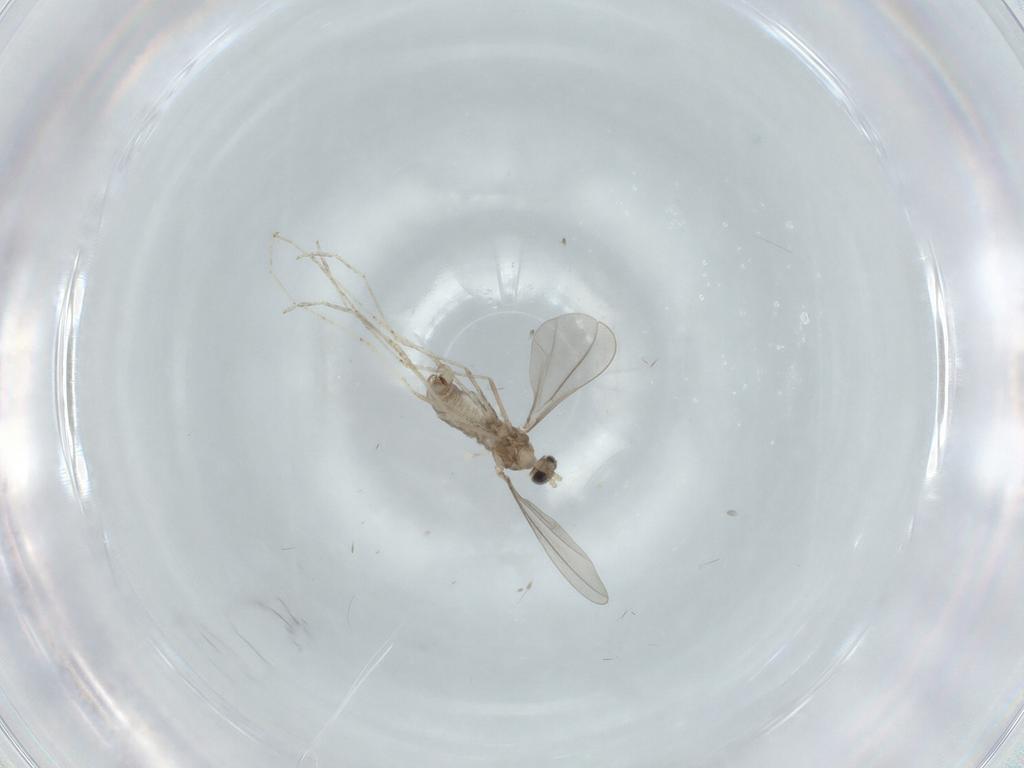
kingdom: Animalia
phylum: Arthropoda
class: Insecta
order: Diptera
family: Cecidomyiidae
